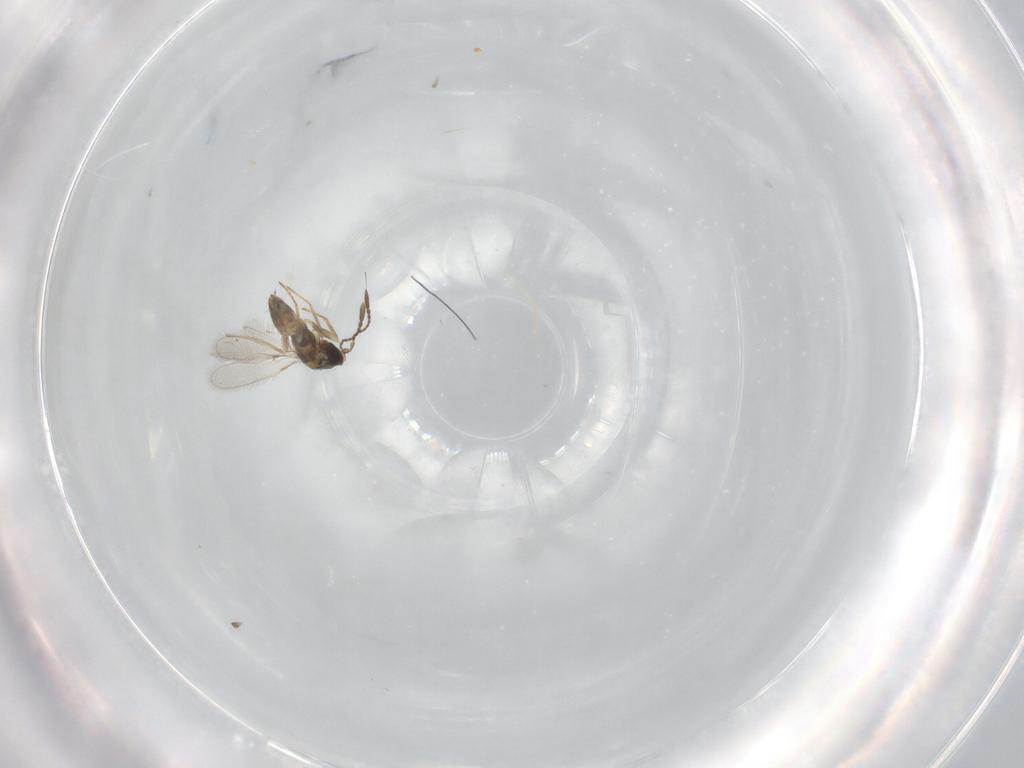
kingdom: Animalia
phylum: Arthropoda
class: Insecta
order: Hymenoptera
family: Mymaridae
